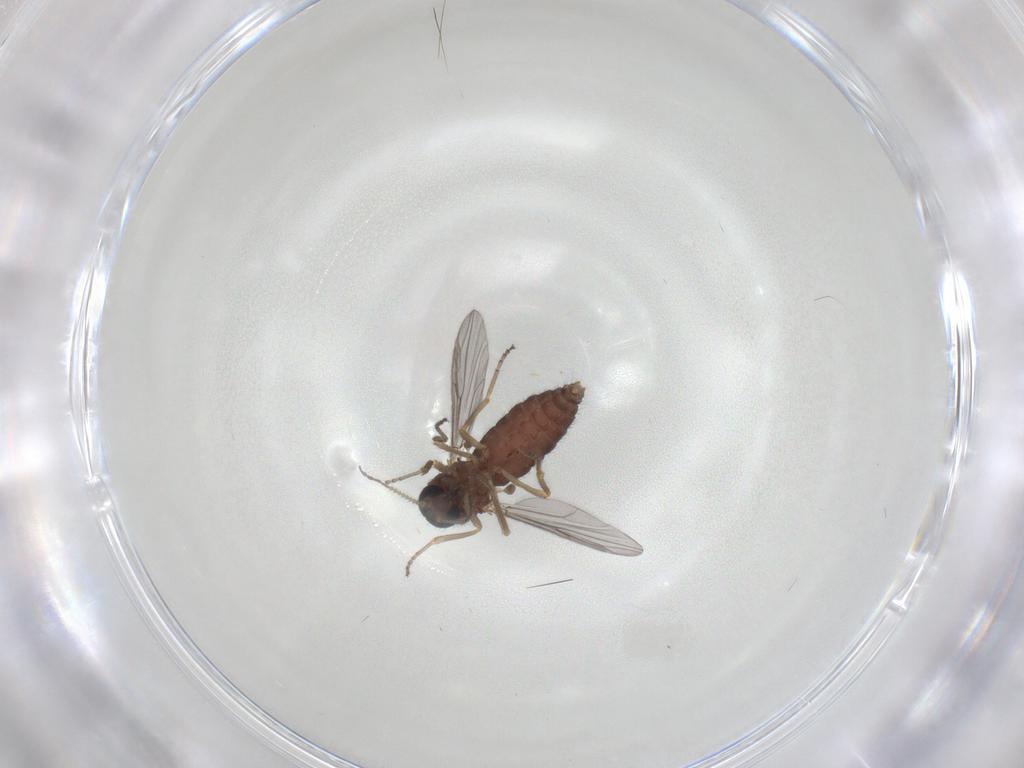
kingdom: Animalia
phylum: Arthropoda
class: Insecta
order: Diptera
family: Ceratopogonidae
